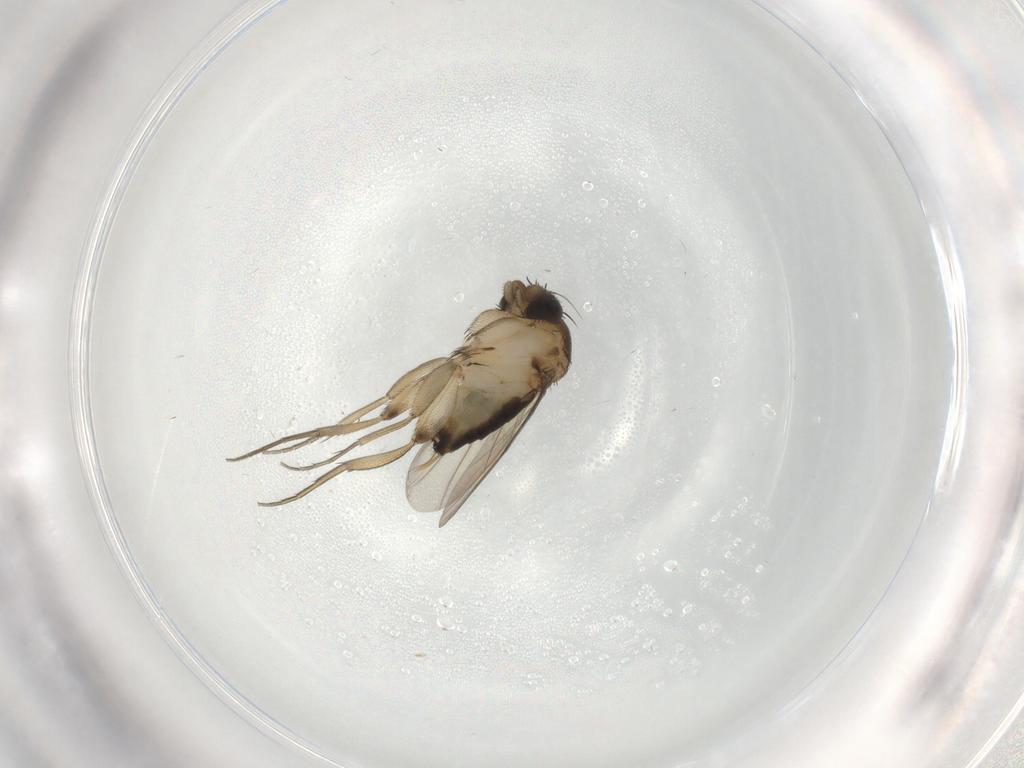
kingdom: Animalia
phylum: Arthropoda
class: Insecta
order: Diptera
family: Phoridae
